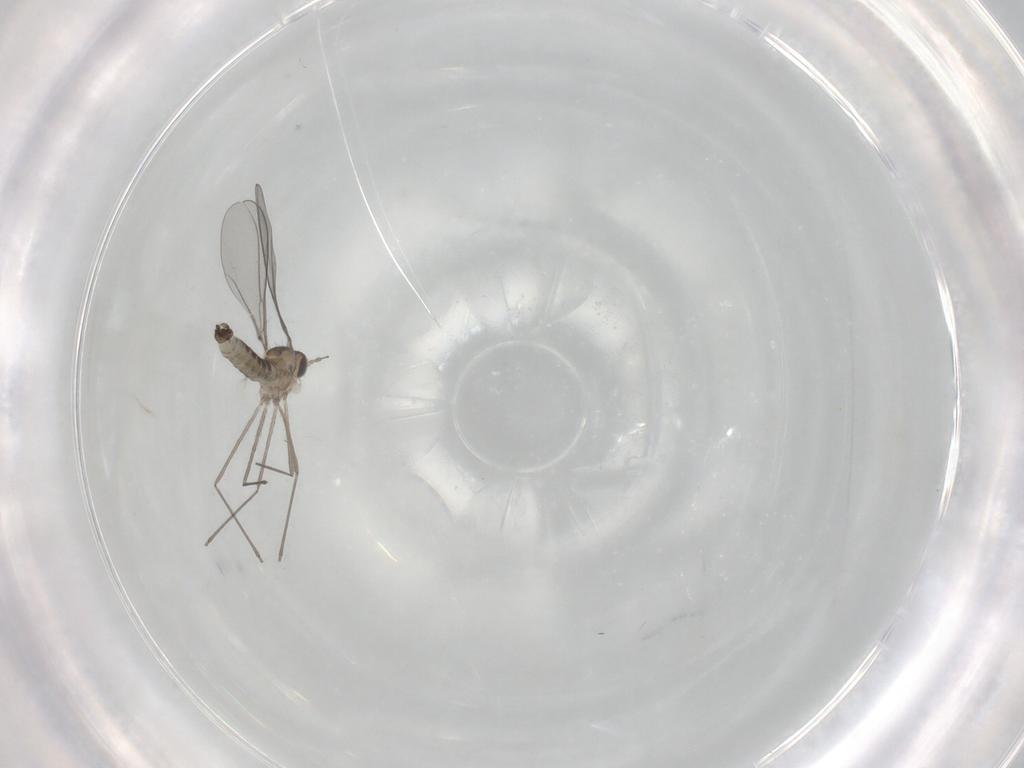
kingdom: Animalia
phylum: Arthropoda
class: Insecta
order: Diptera
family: Cecidomyiidae
